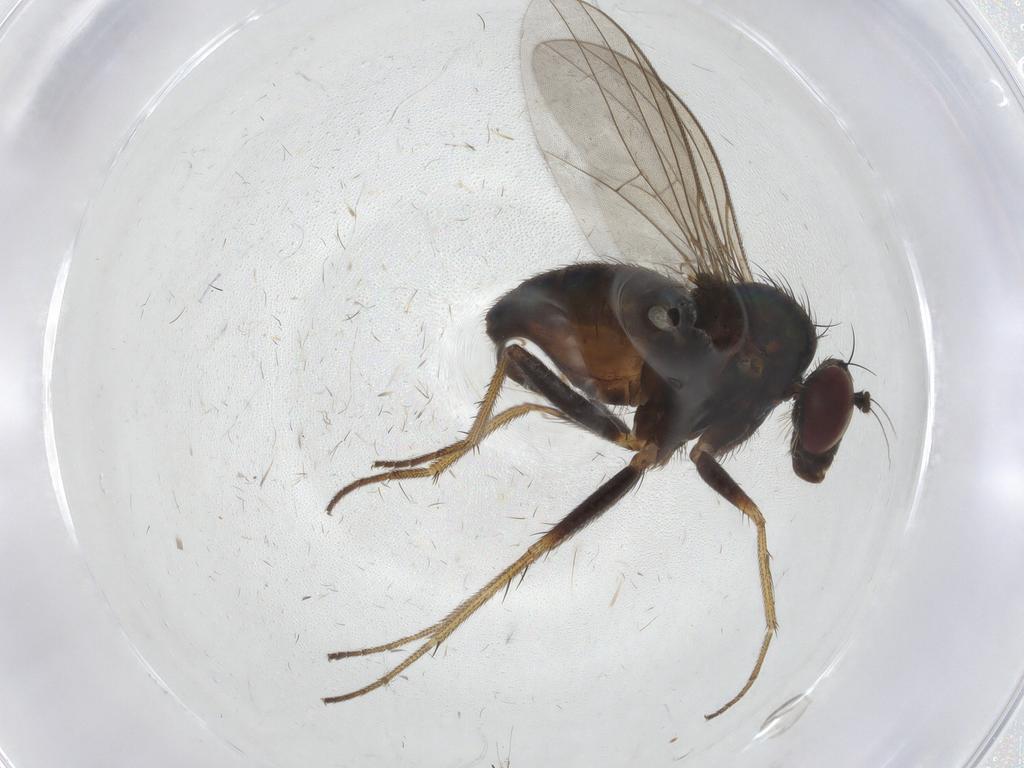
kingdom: Animalia
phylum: Arthropoda
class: Insecta
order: Diptera
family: Dolichopodidae
